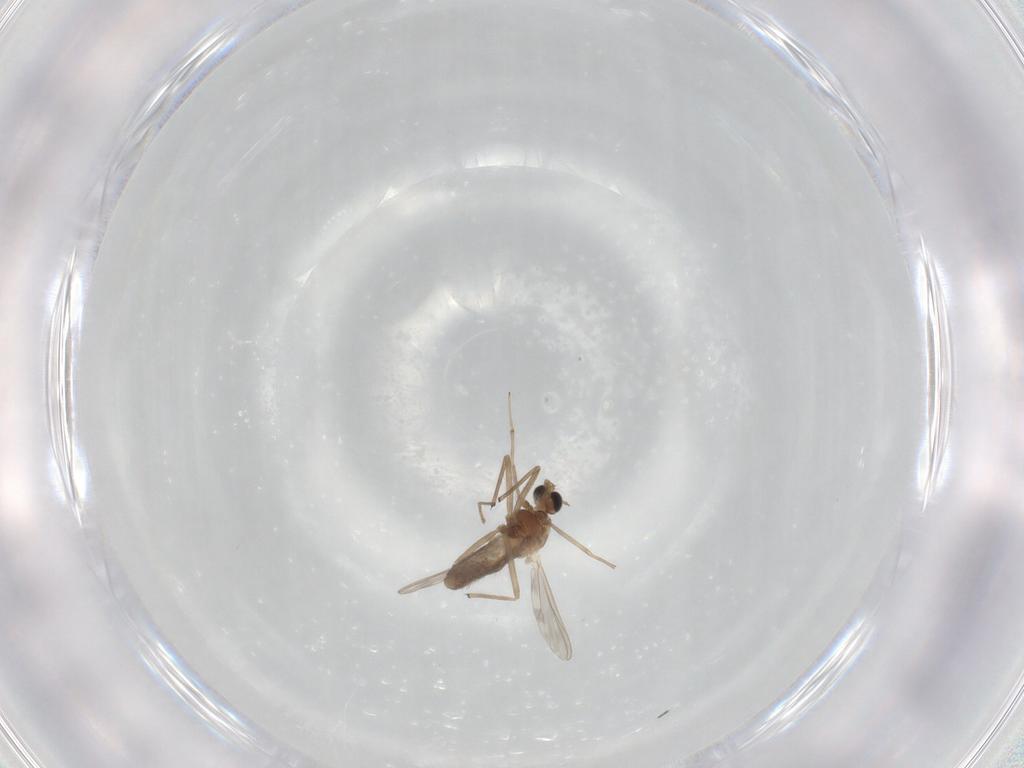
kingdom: Animalia
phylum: Arthropoda
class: Insecta
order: Diptera
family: Chironomidae
